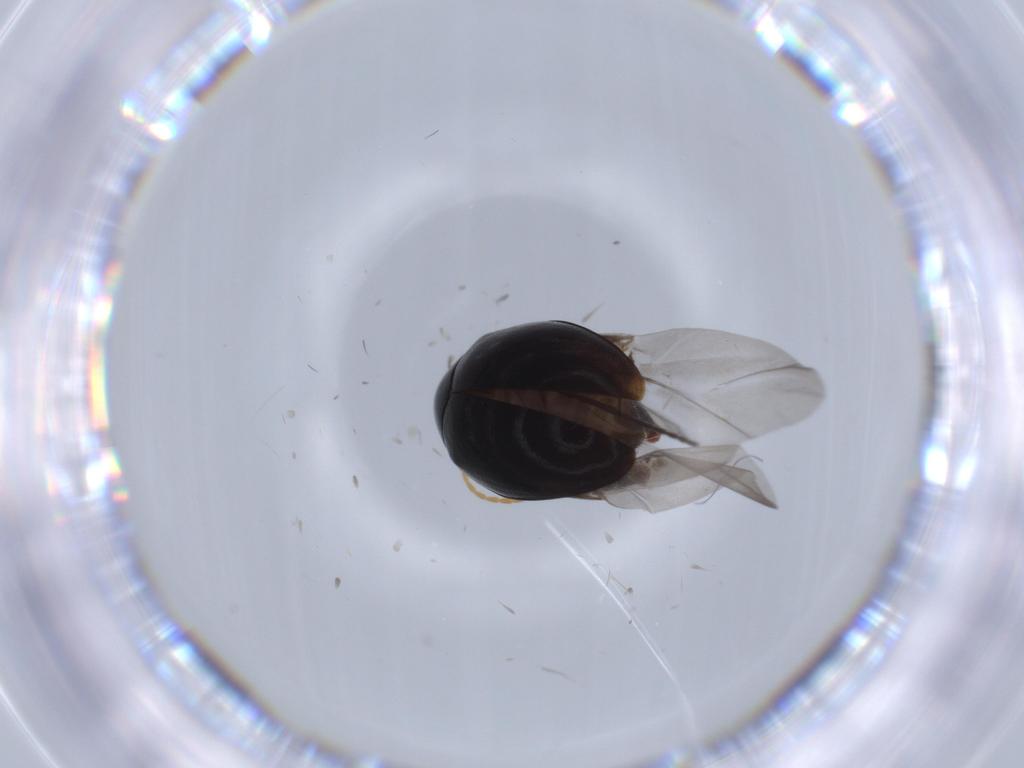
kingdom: Animalia
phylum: Arthropoda
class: Insecta
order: Coleoptera
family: Chrysomelidae
